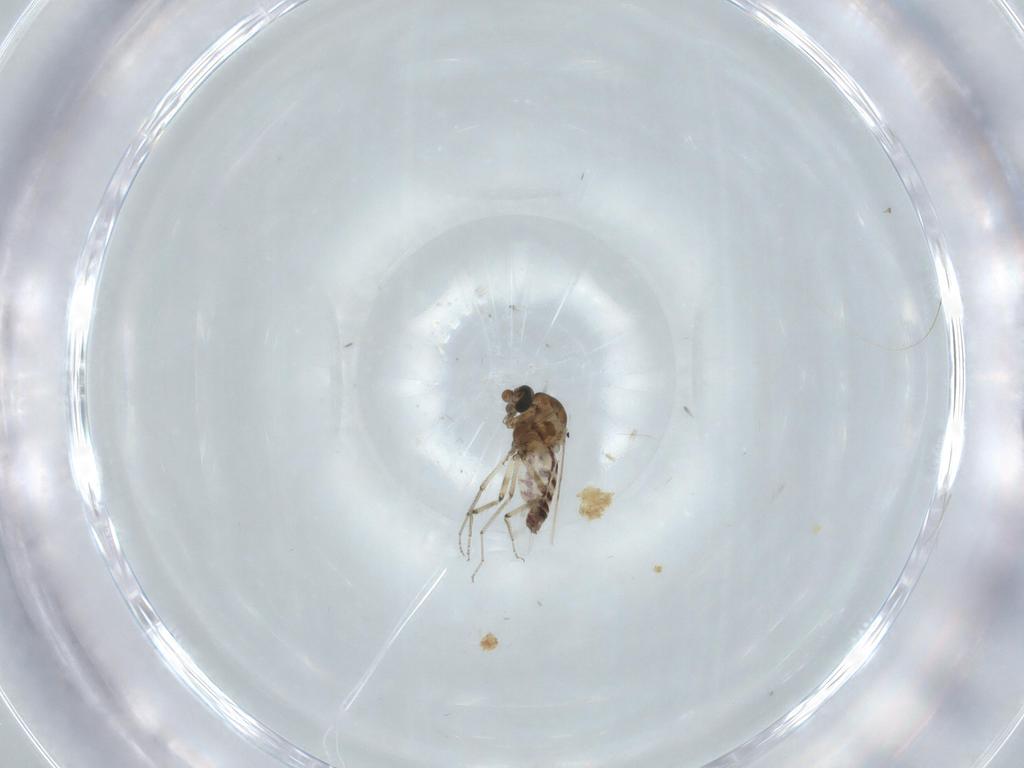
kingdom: Animalia
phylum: Arthropoda
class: Insecta
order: Diptera
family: Ceratopogonidae
